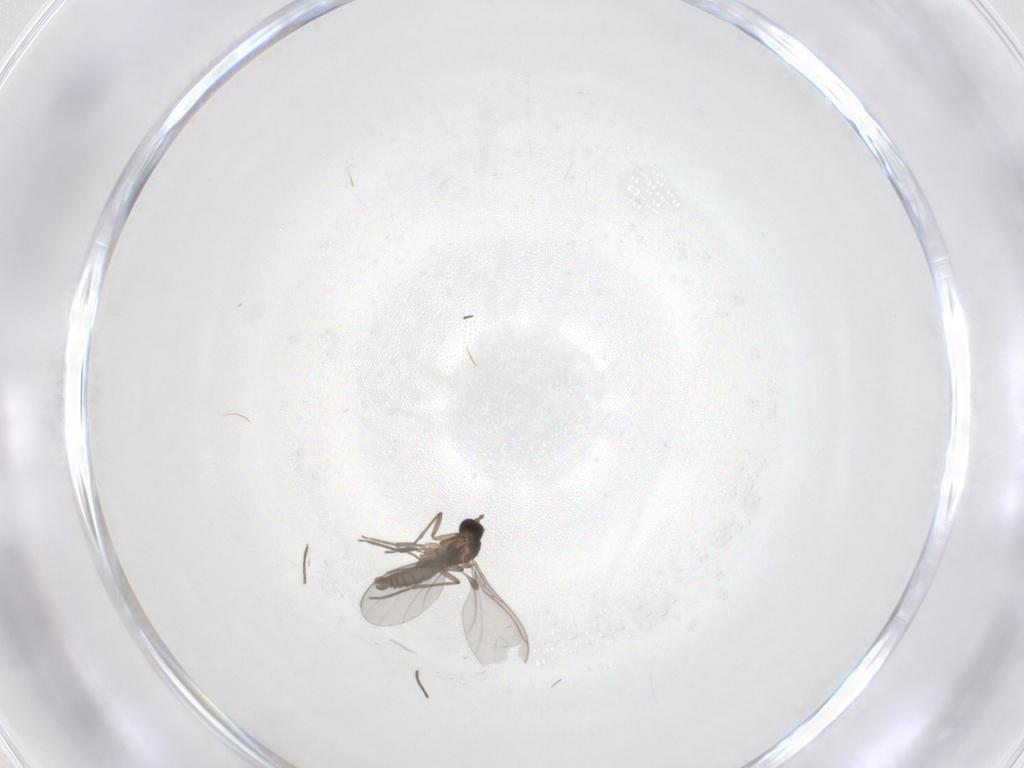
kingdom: Animalia
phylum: Arthropoda
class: Insecta
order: Diptera
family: Sciaridae
